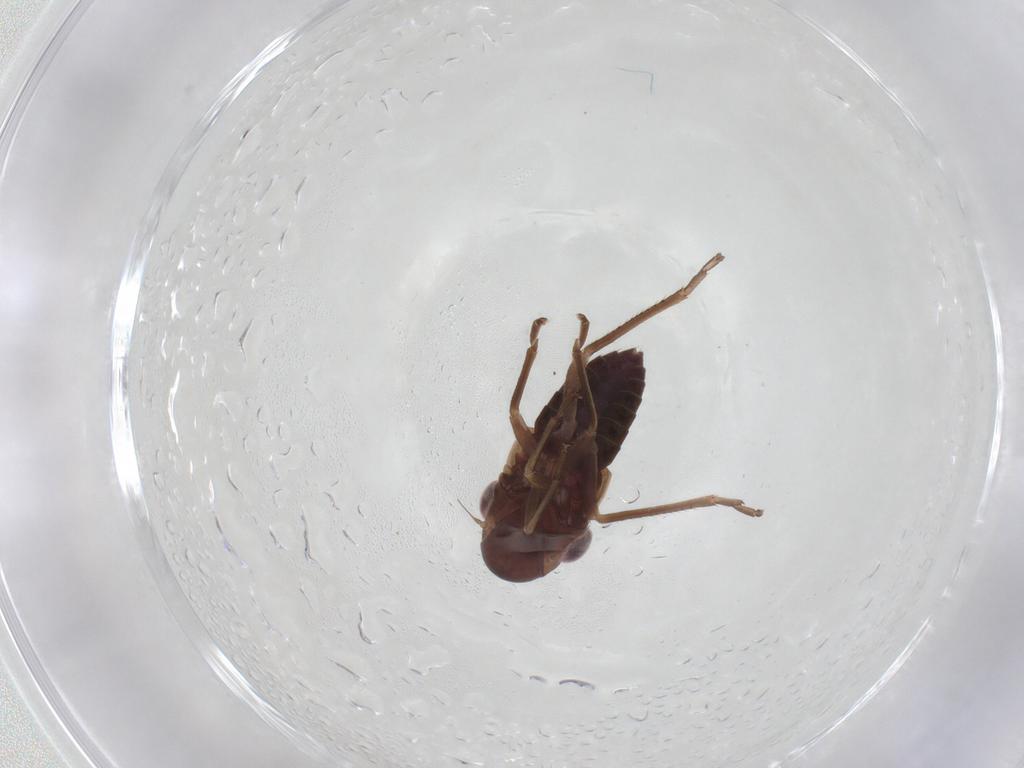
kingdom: Animalia
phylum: Arthropoda
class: Insecta
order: Hemiptera
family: Cicadellidae
